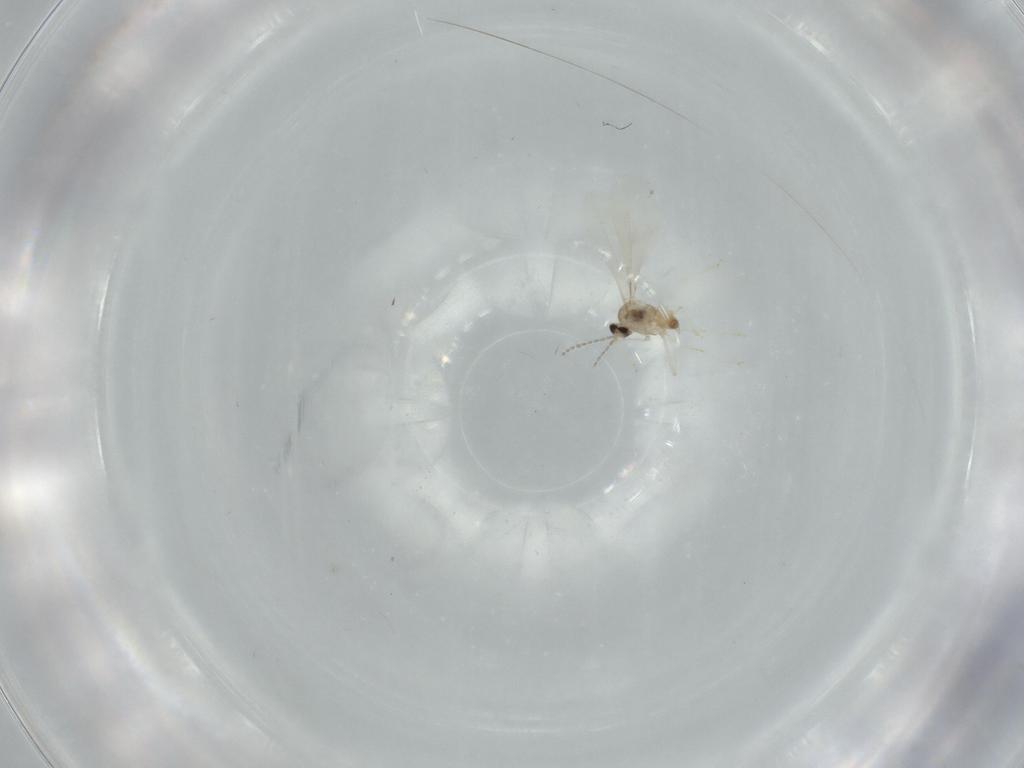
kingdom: Animalia
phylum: Arthropoda
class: Insecta
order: Diptera
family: Cecidomyiidae
